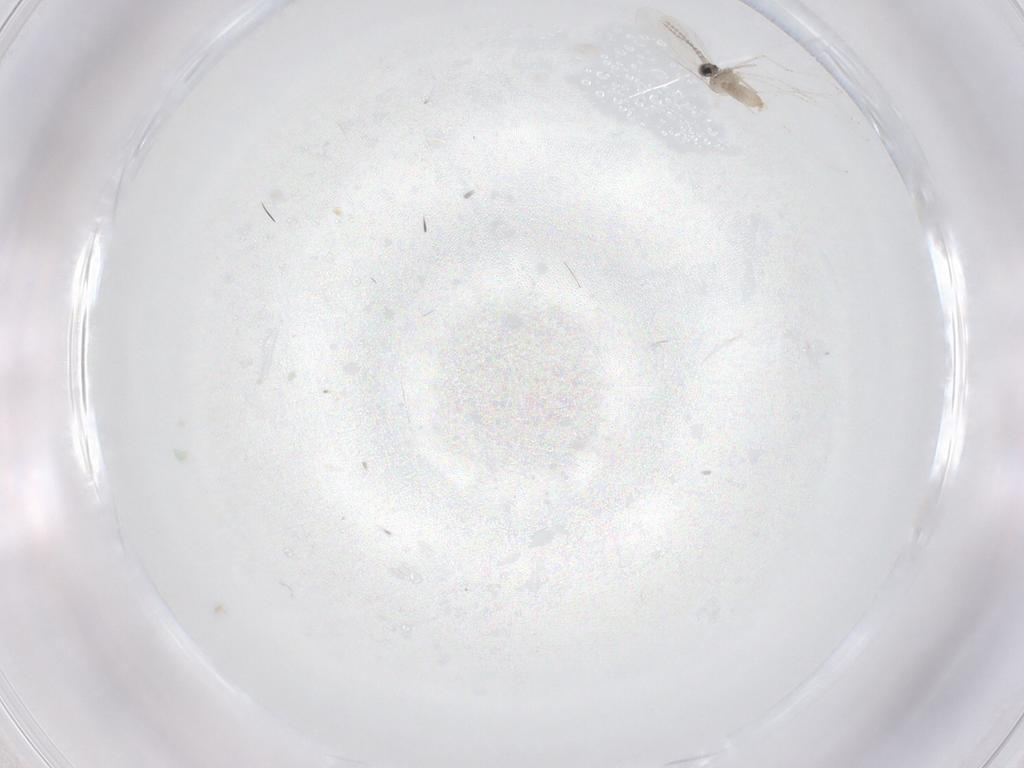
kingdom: Animalia
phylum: Arthropoda
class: Insecta
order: Diptera
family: Cecidomyiidae
